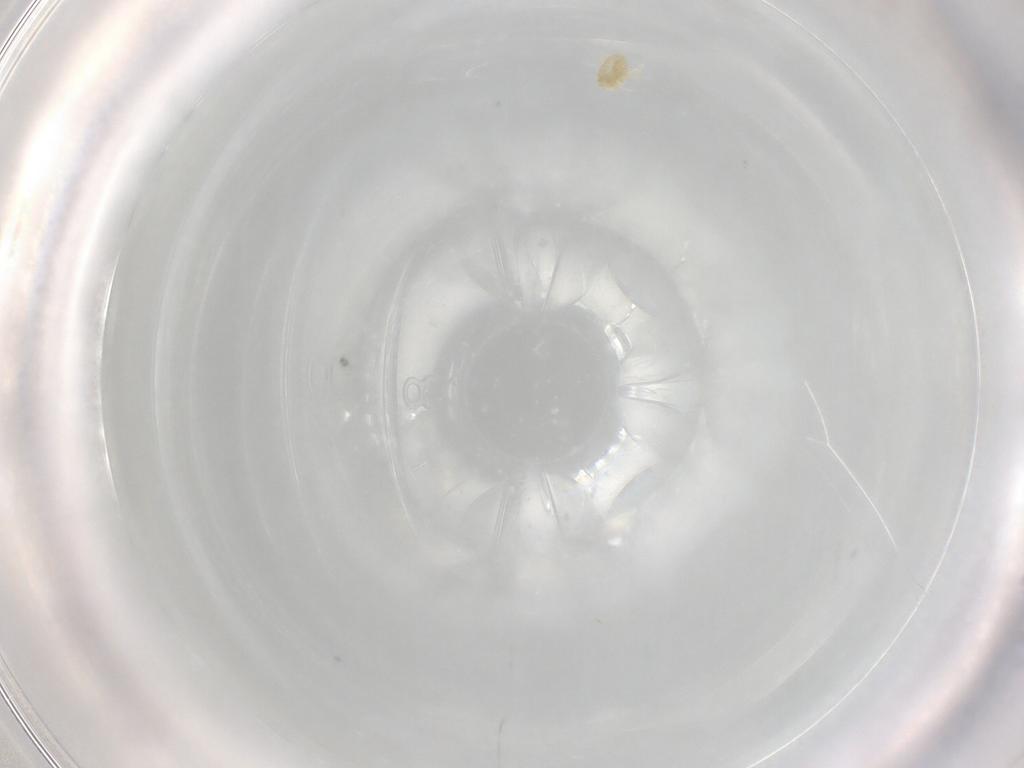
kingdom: Animalia
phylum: Arthropoda
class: Arachnida
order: Trombidiformes
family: Eupodidae
